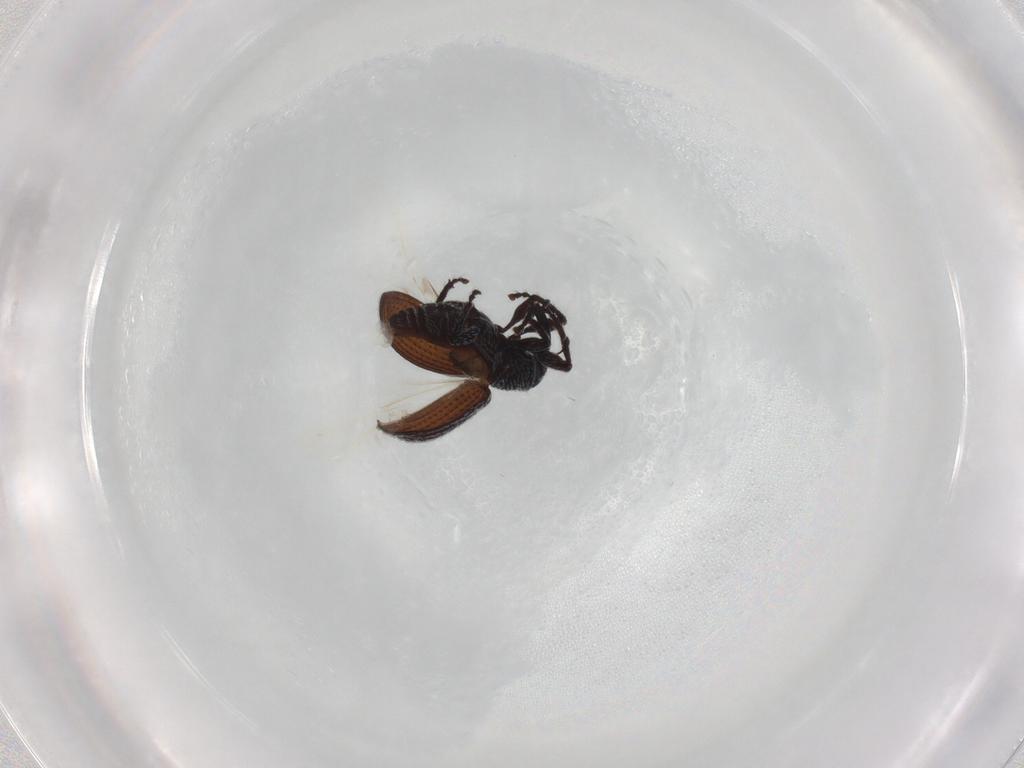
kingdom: Animalia
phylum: Arthropoda
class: Insecta
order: Coleoptera
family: Curculionidae
